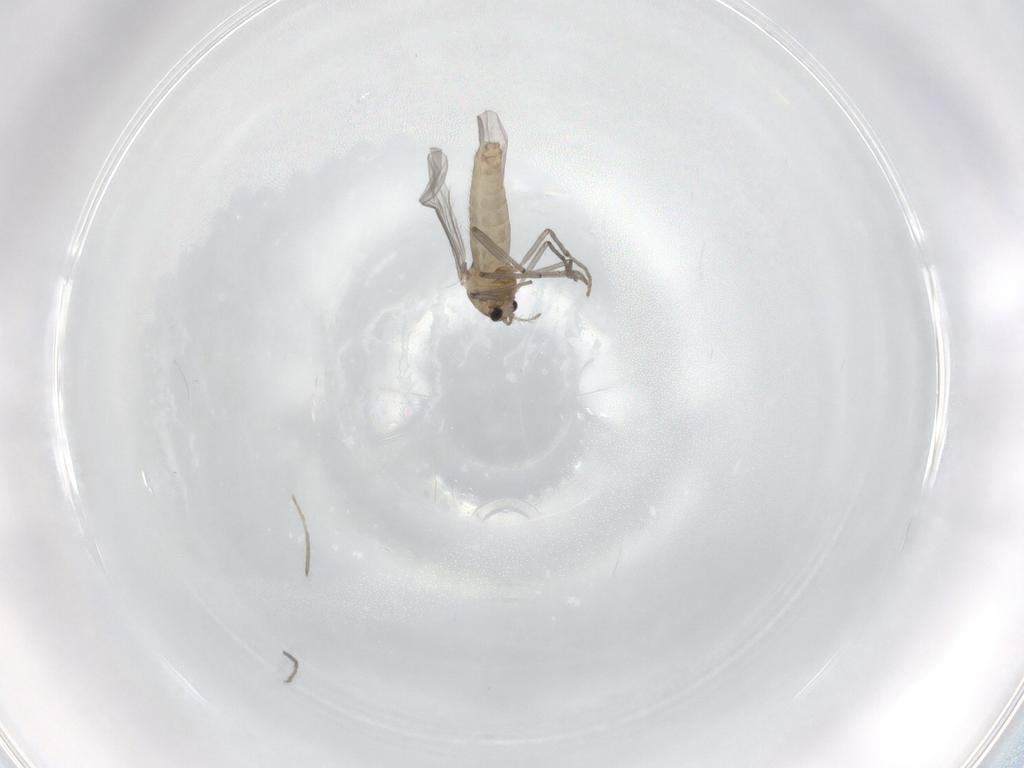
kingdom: Animalia
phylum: Arthropoda
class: Insecta
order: Diptera
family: Chironomidae
